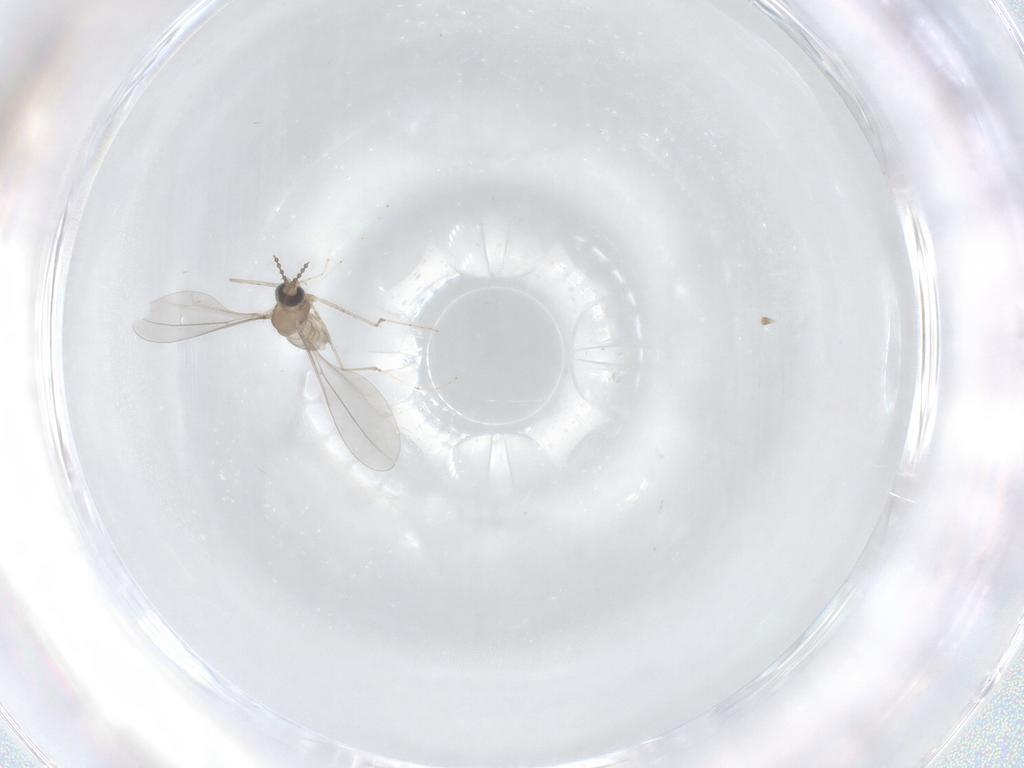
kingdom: Animalia
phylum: Arthropoda
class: Insecta
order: Diptera
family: Cecidomyiidae
